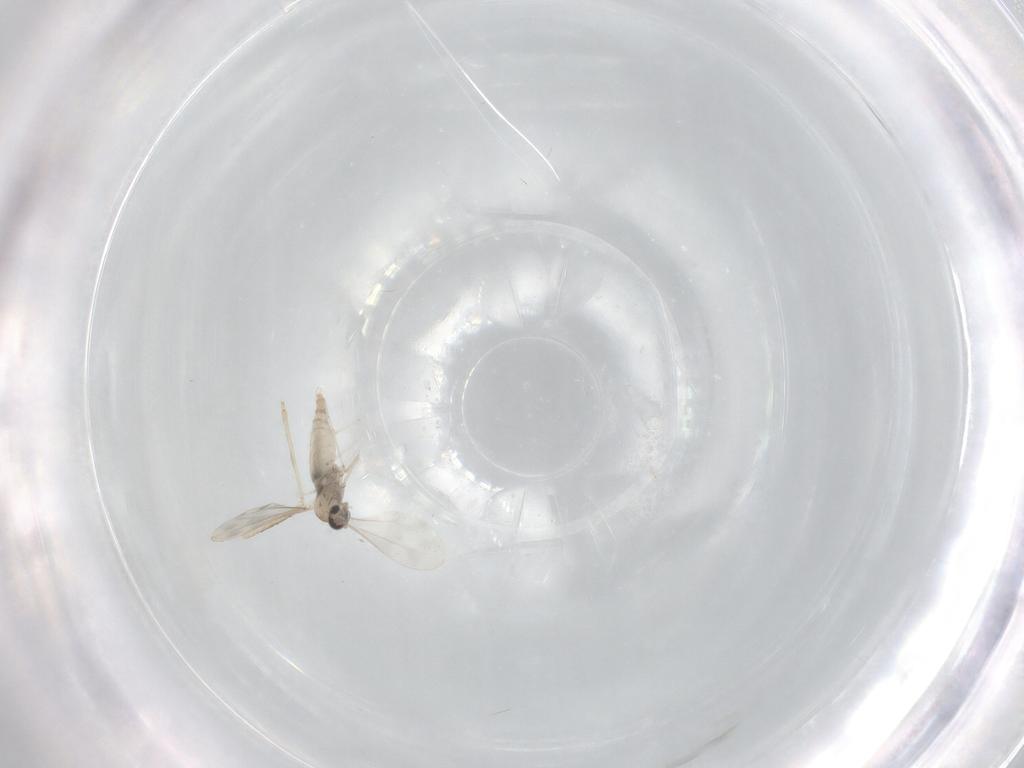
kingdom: Animalia
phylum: Arthropoda
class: Insecta
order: Diptera
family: Cecidomyiidae
